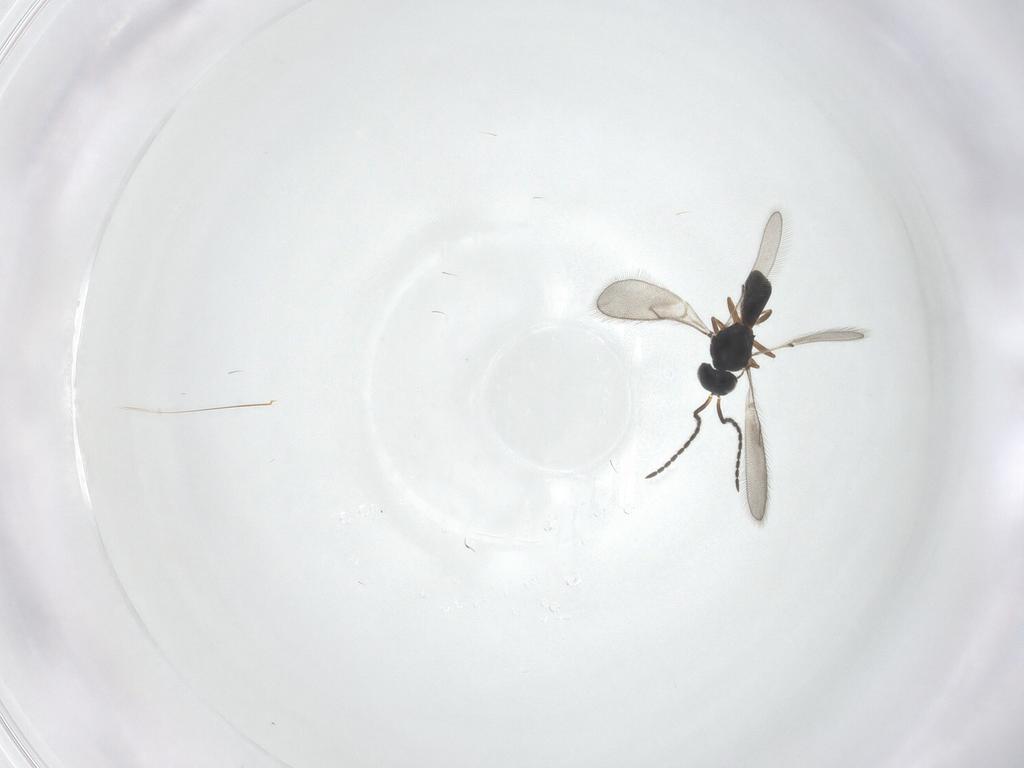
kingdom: Animalia
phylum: Arthropoda
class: Insecta
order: Hymenoptera
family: Scelionidae
